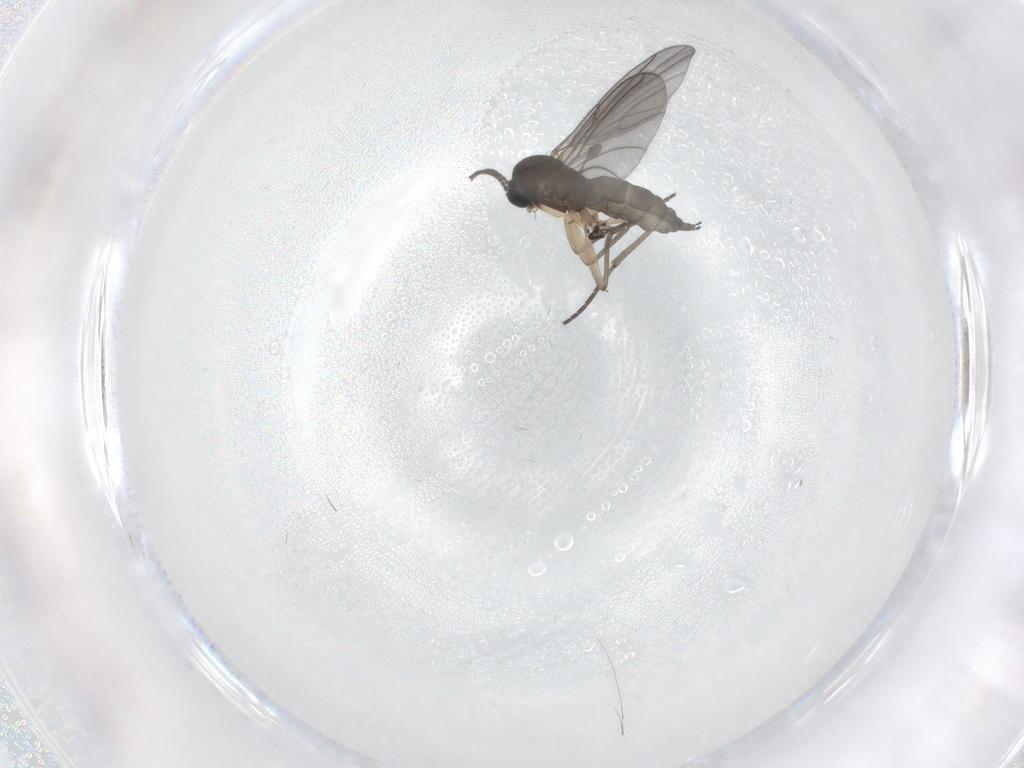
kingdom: Animalia
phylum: Arthropoda
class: Insecta
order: Diptera
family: Sciaridae
